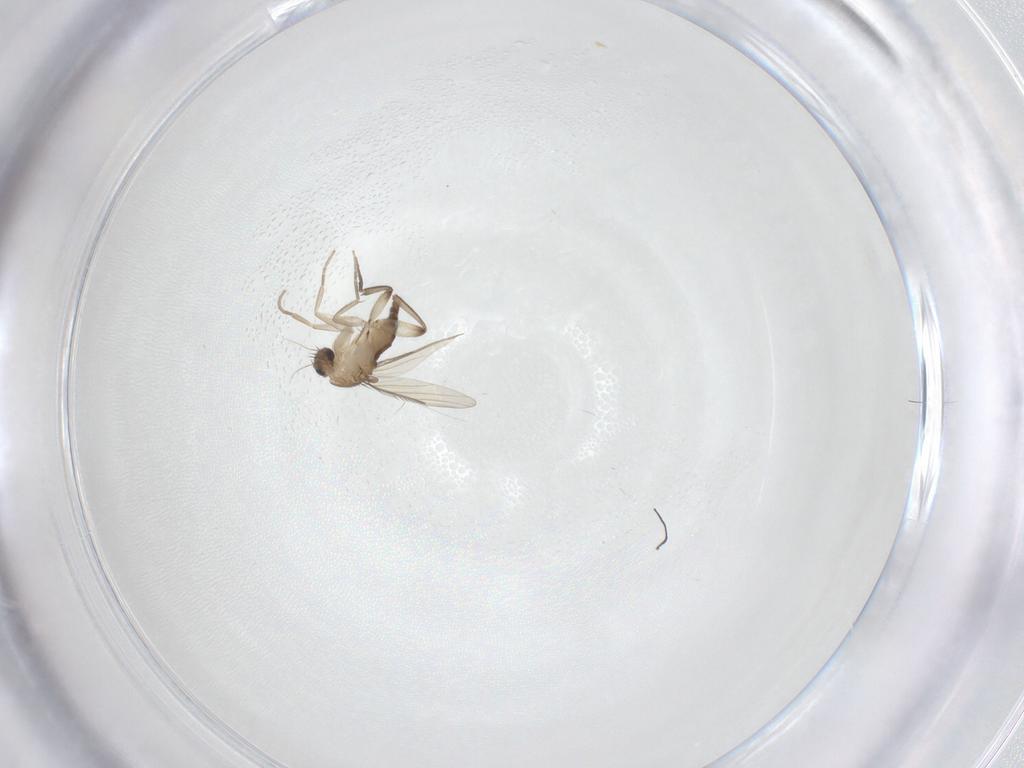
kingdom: Animalia
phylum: Arthropoda
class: Insecta
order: Diptera
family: Phoridae
